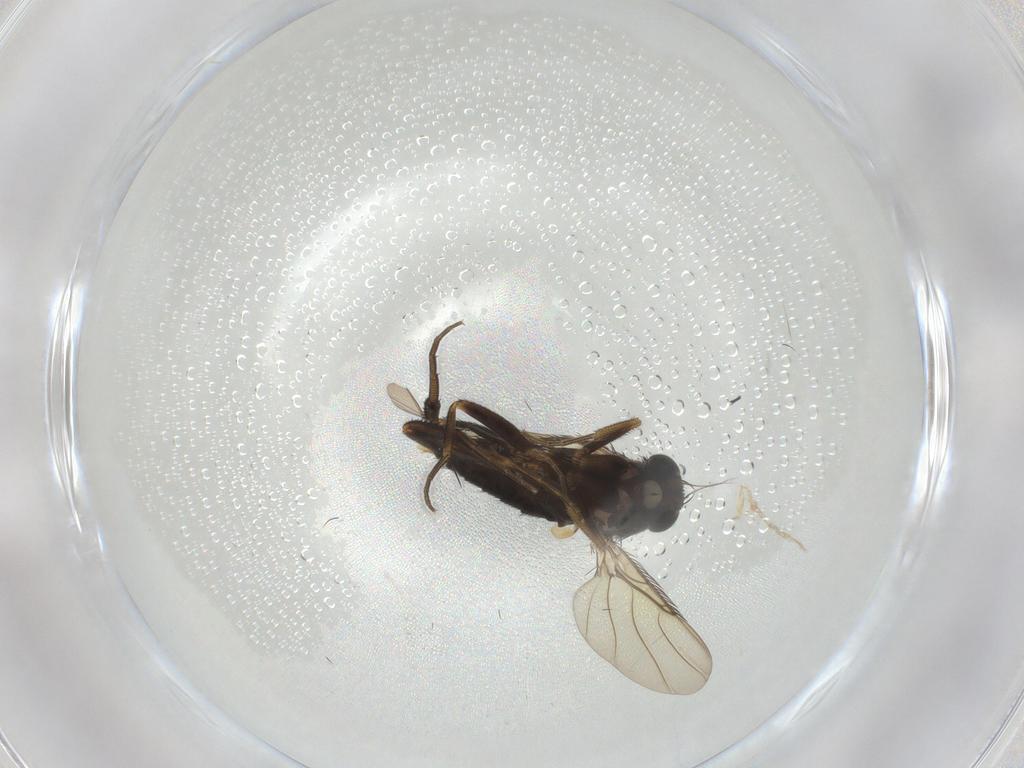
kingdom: Animalia
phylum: Arthropoda
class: Insecta
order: Diptera
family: Phoridae
